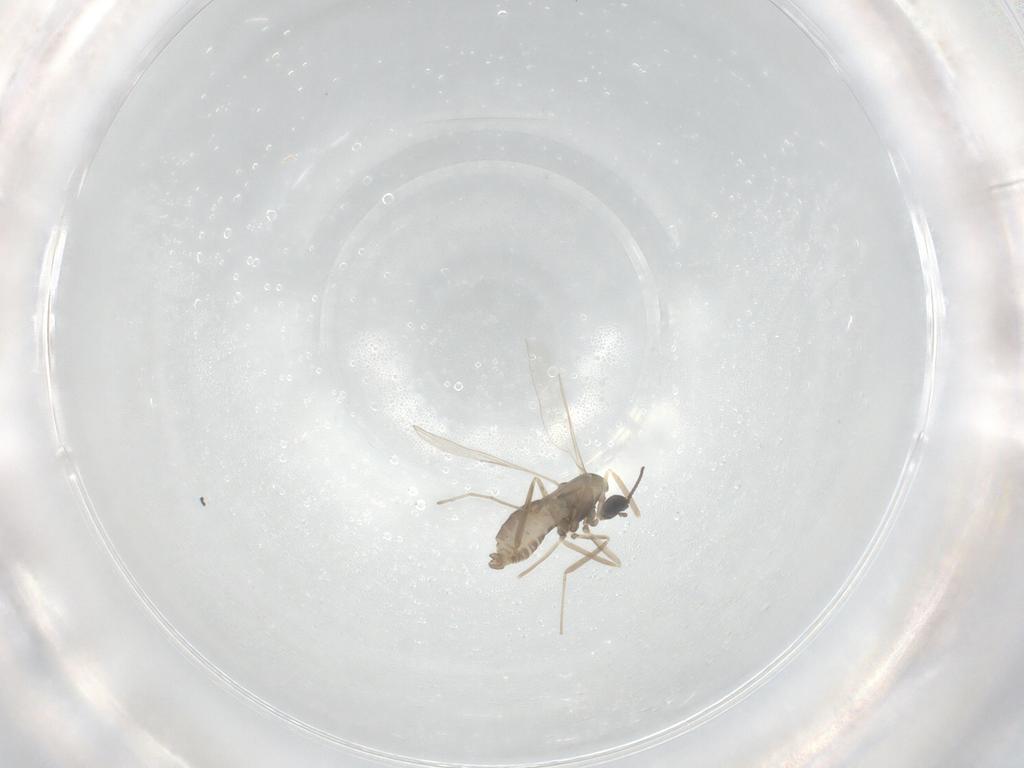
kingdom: Animalia
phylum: Arthropoda
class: Insecta
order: Diptera
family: Cecidomyiidae
